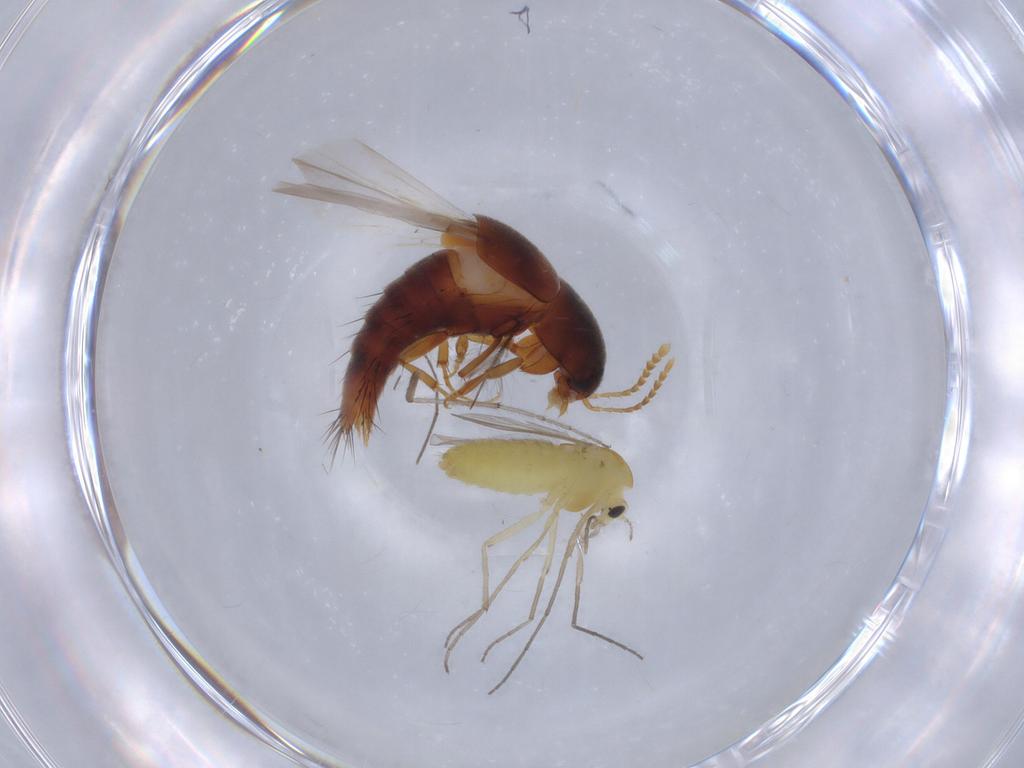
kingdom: Animalia
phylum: Arthropoda
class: Insecta
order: Coleoptera
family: Staphylinidae
